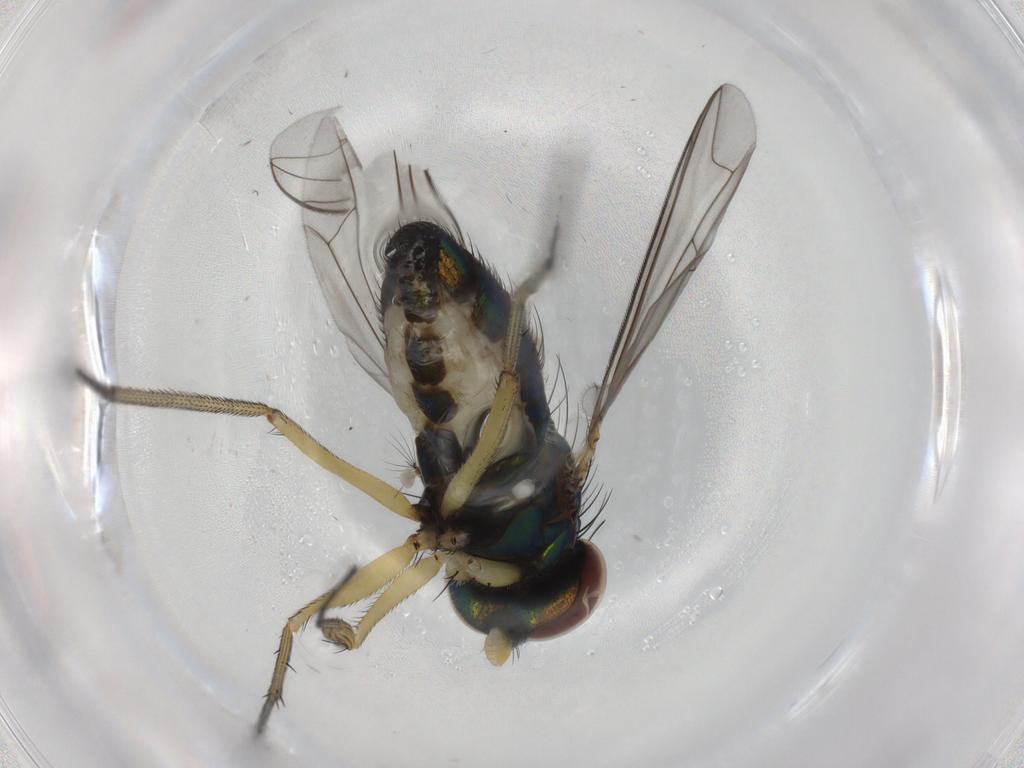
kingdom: Animalia
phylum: Arthropoda
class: Insecta
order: Diptera
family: Dolichopodidae
